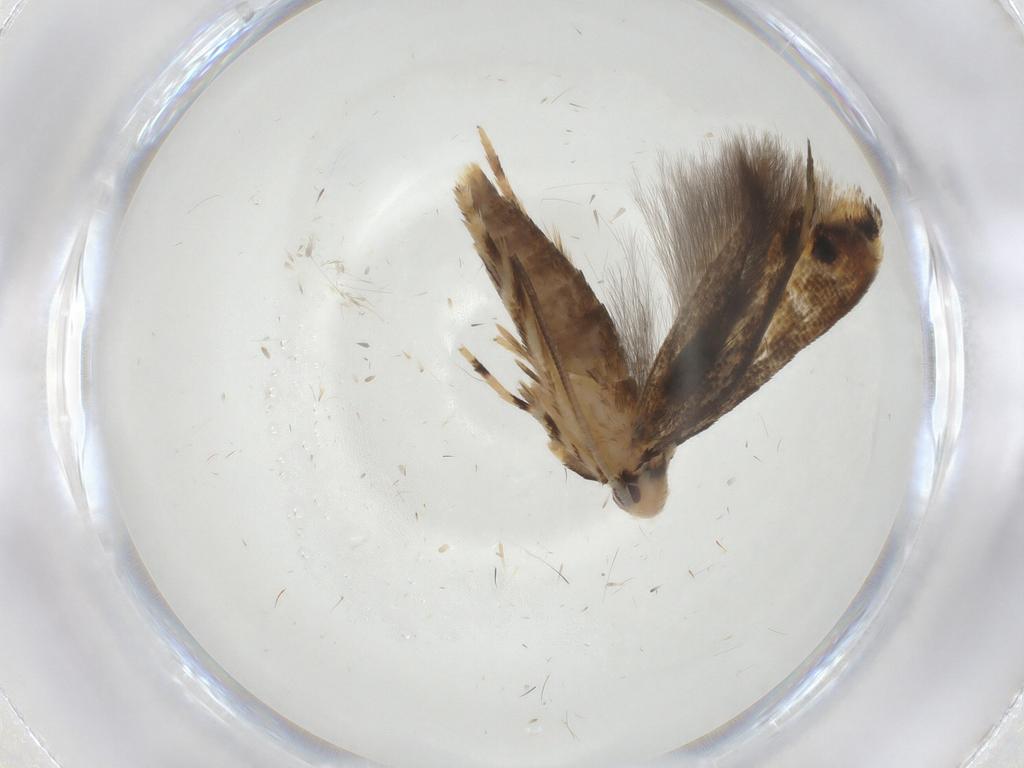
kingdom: Animalia
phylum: Arthropoda
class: Insecta
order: Lepidoptera
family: Momphidae
